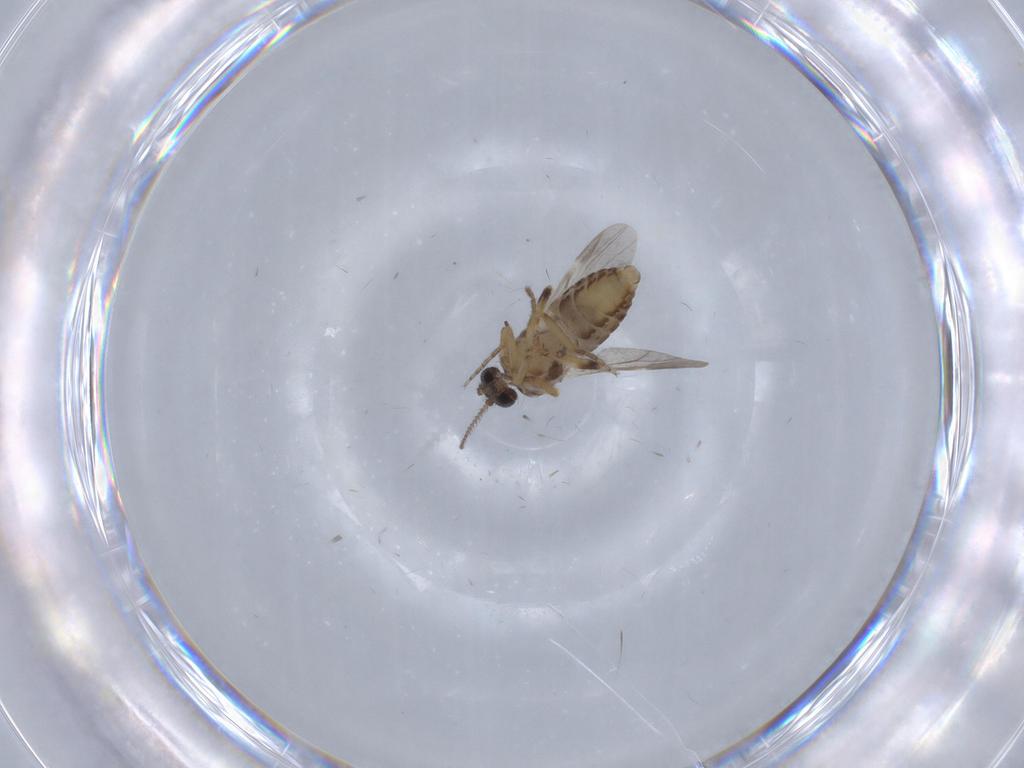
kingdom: Animalia
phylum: Arthropoda
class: Insecta
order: Diptera
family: Ceratopogonidae
